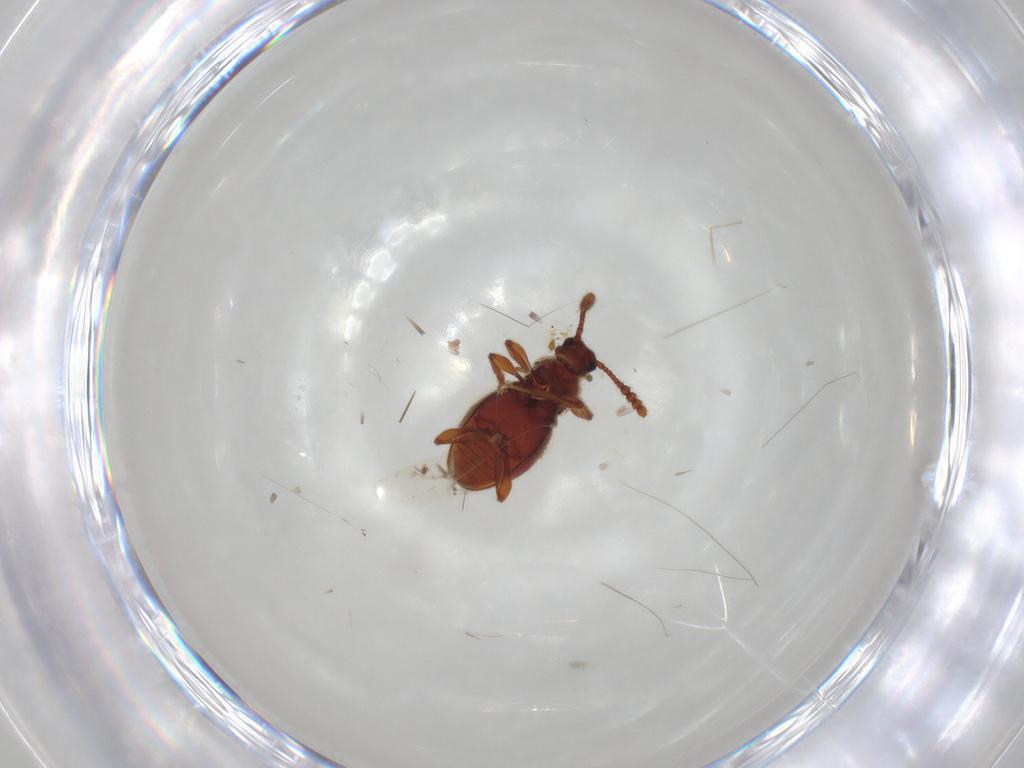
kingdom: Animalia
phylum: Arthropoda
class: Insecta
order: Coleoptera
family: Staphylinidae
